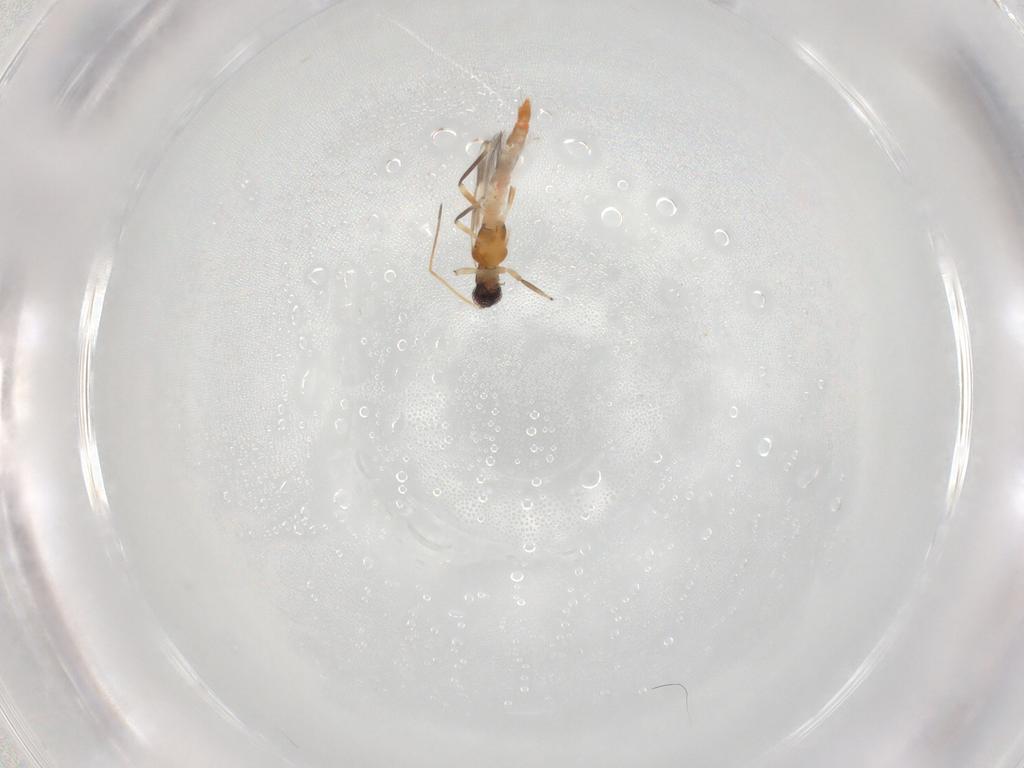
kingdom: Animalia
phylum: Arthropoda
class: Insecta
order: Thysanoptera
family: Aeolothripidae
